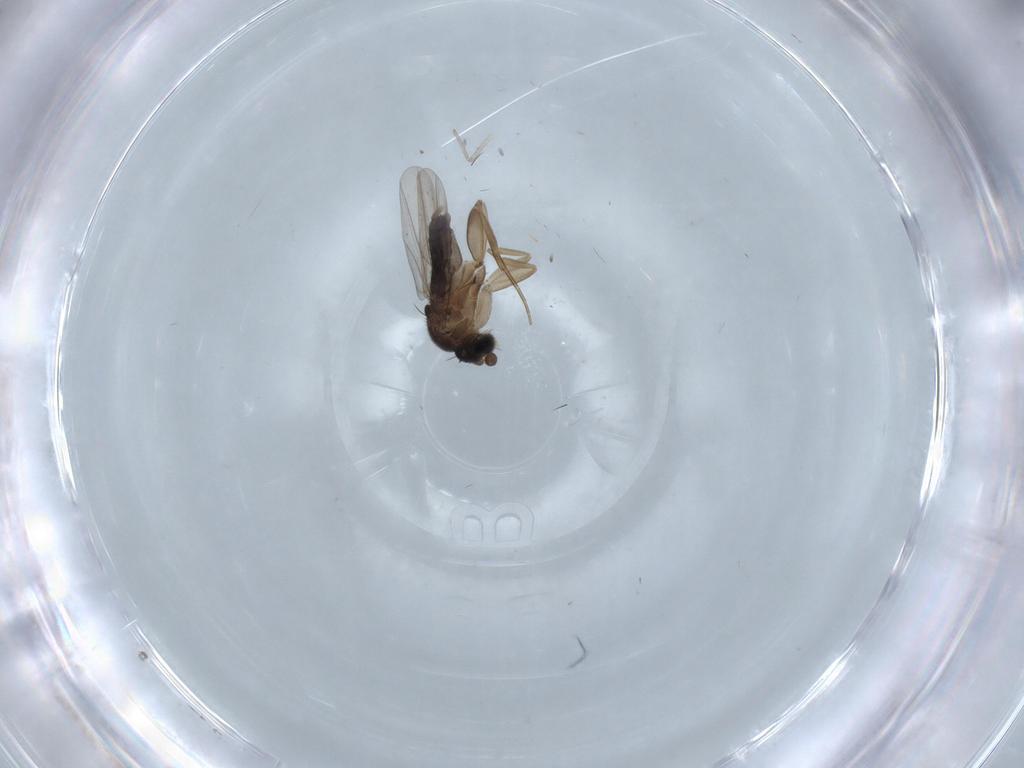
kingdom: Animalia
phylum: Arthropoda
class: Insecta
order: Diptera
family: Phoridae
